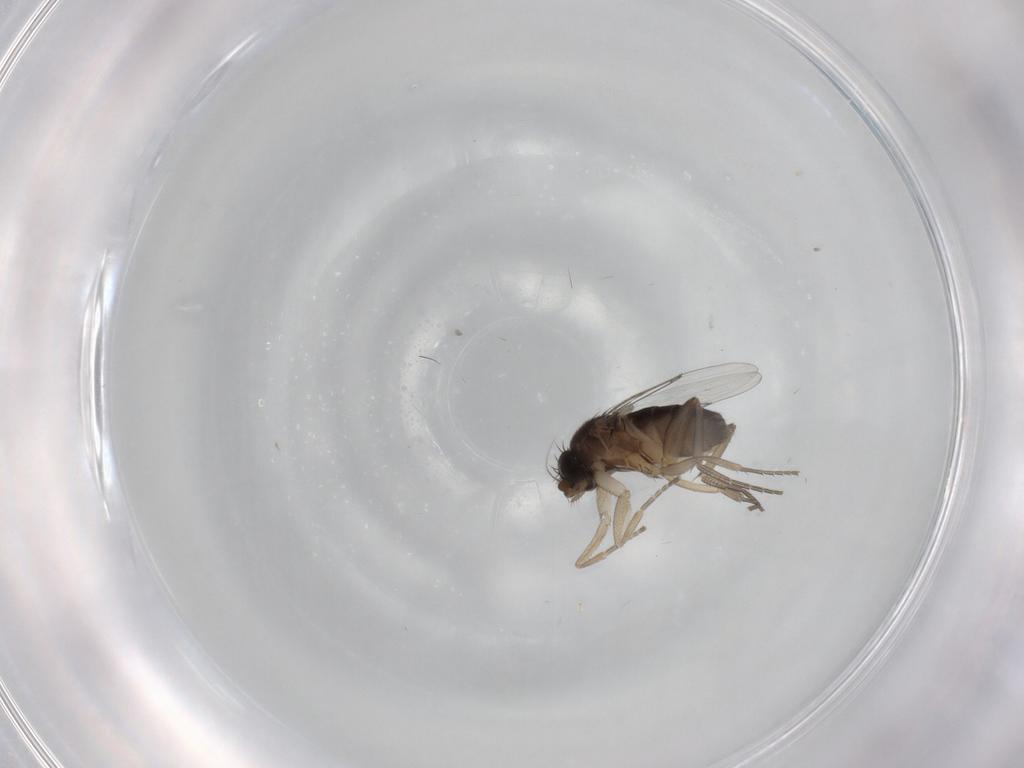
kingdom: Animalia
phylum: Arthropoda
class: Insecta
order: Diptera
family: Phoridae
